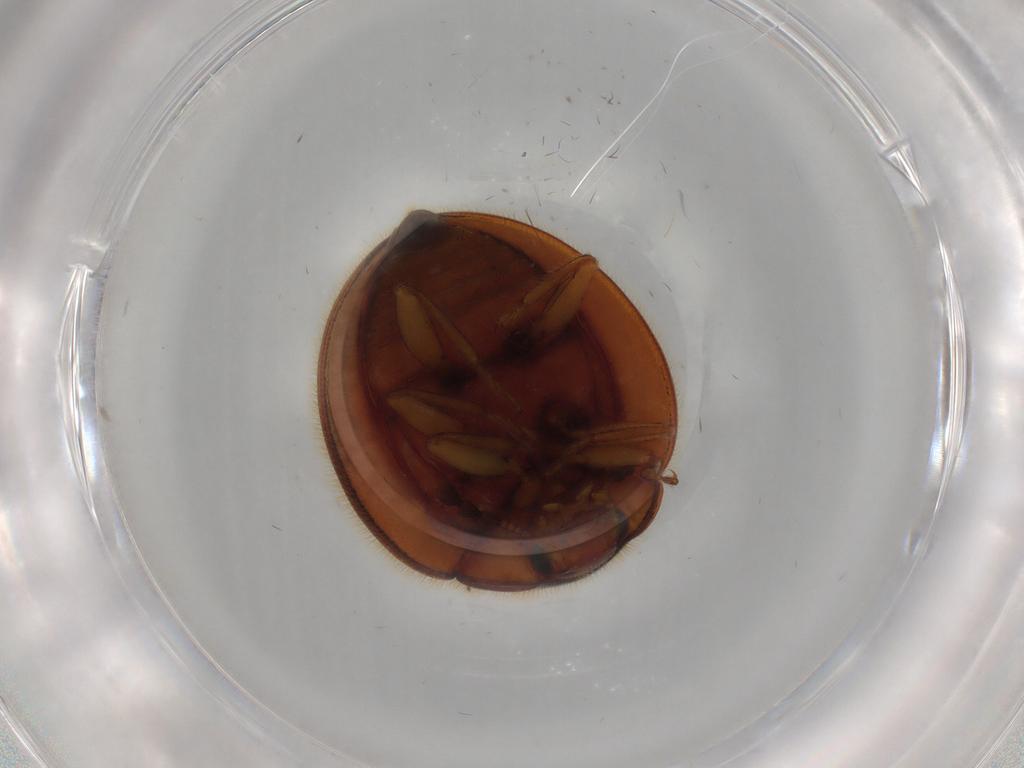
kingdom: Animalia
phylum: Arthropoda
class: Insecta
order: Coleoptera
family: Anamorphidae
